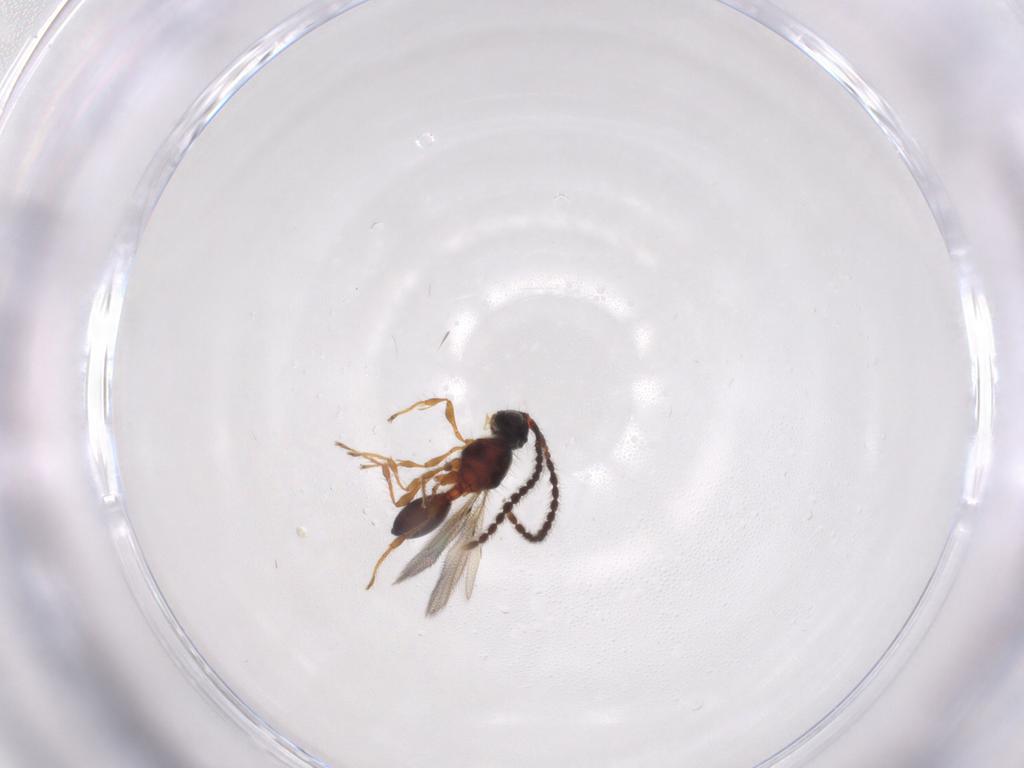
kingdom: Animalia
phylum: Arthropoda
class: Insecta
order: Hymenoptera
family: Diapriidae
